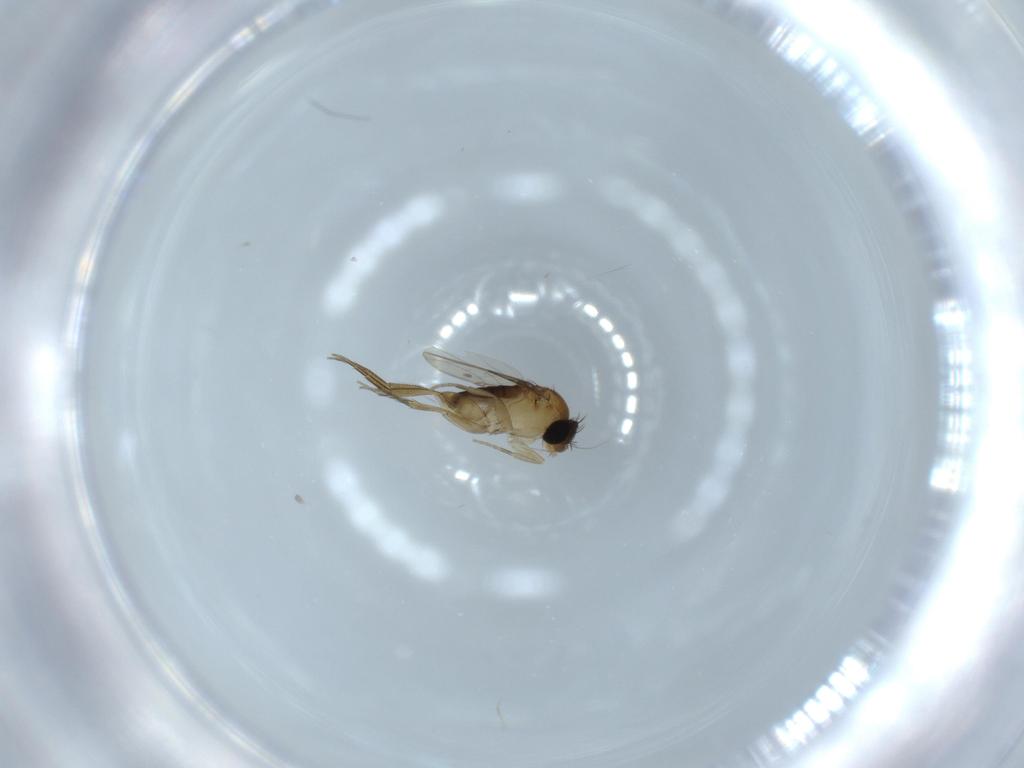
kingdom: Animalia
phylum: Arthropoda
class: Insecta
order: Diptera
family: Phoridae
